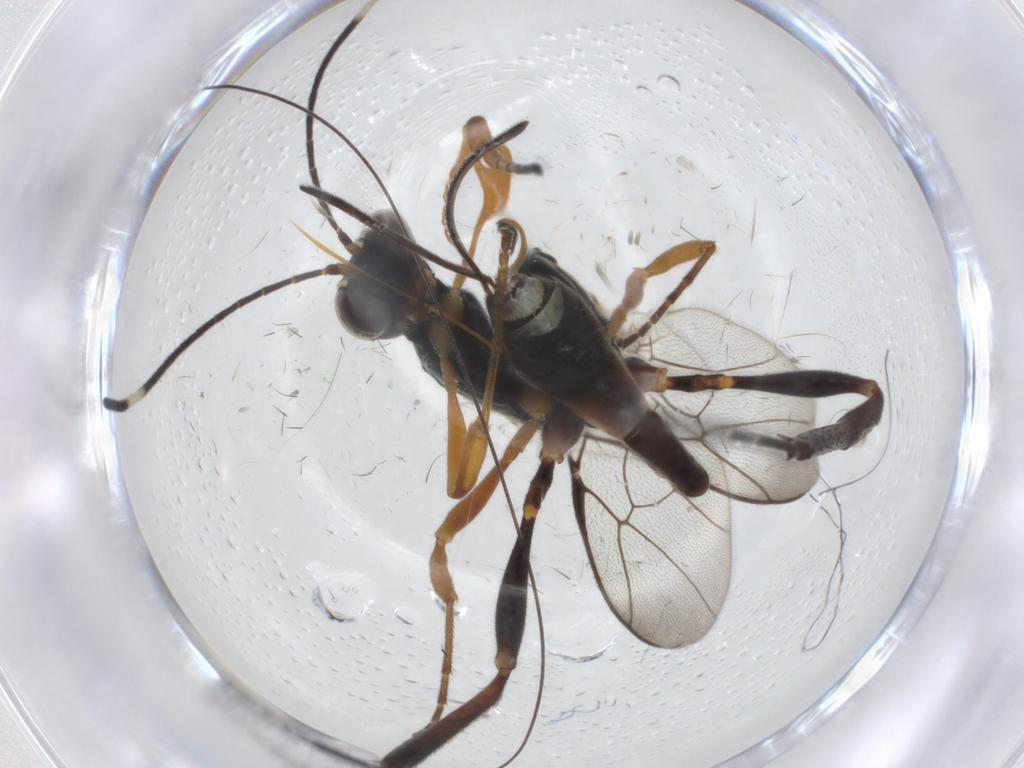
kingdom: Animalia
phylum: Arthropoda
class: Insecta
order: Hymenoptera
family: Ichneumonidae
